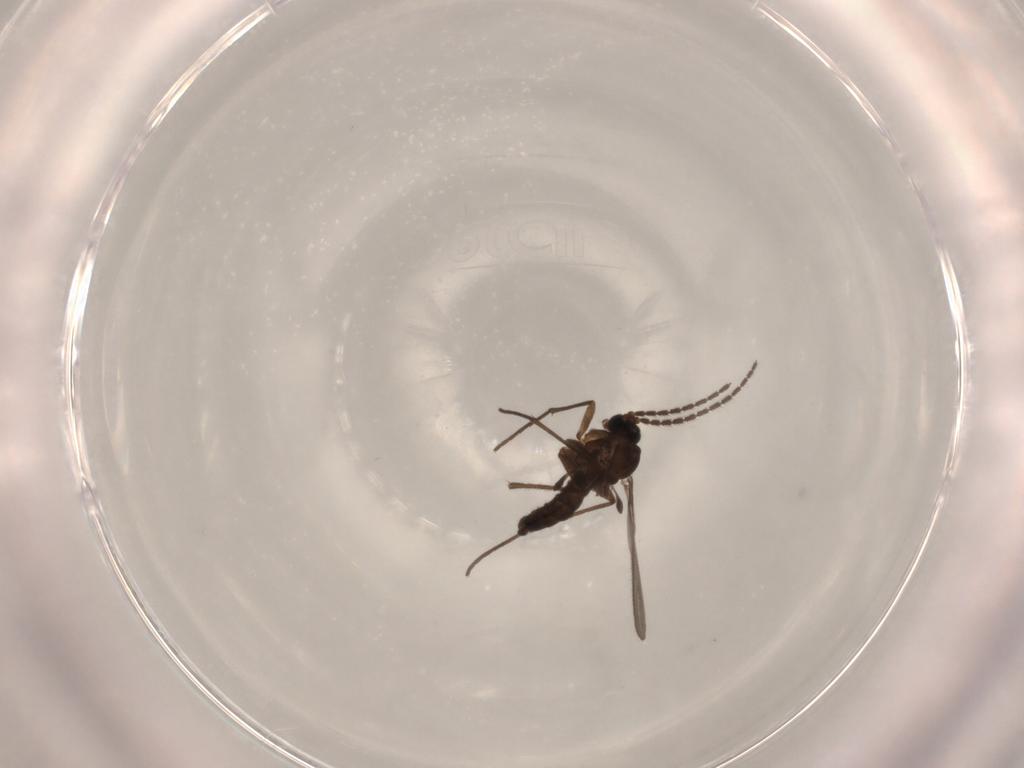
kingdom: Animalia
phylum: Arthropoda
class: Insecta
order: Diptera
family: Sciaridae
